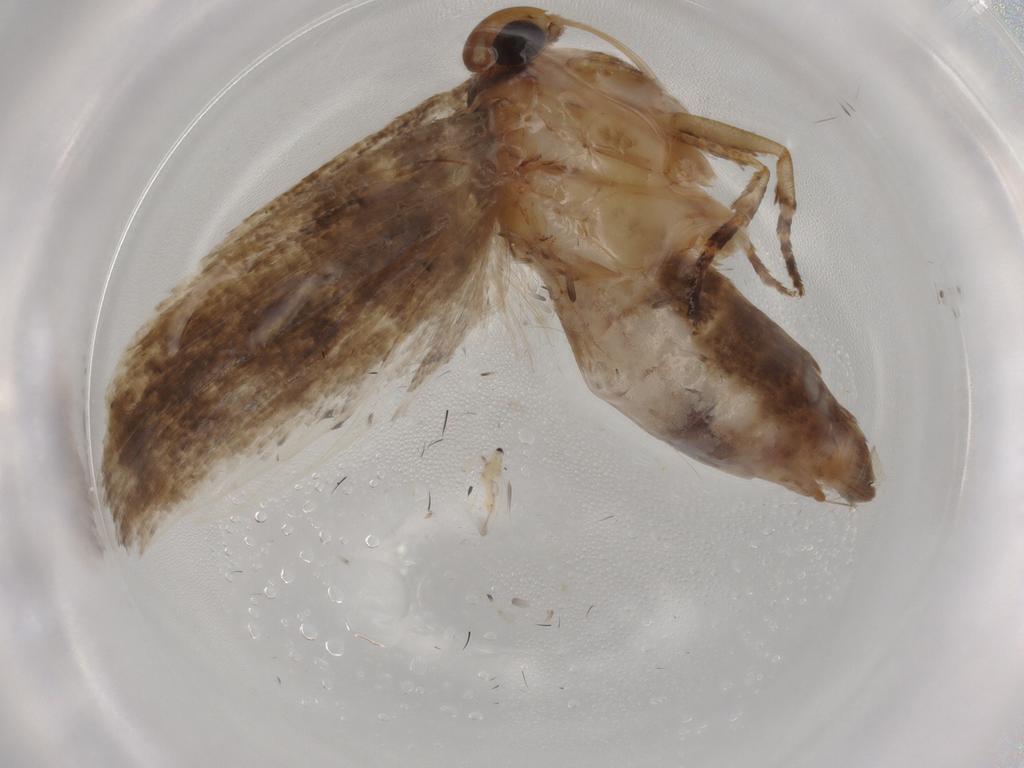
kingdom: Animalia
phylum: Arthropoda
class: Insecta
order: Lepidoptera
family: Gelechiidae
